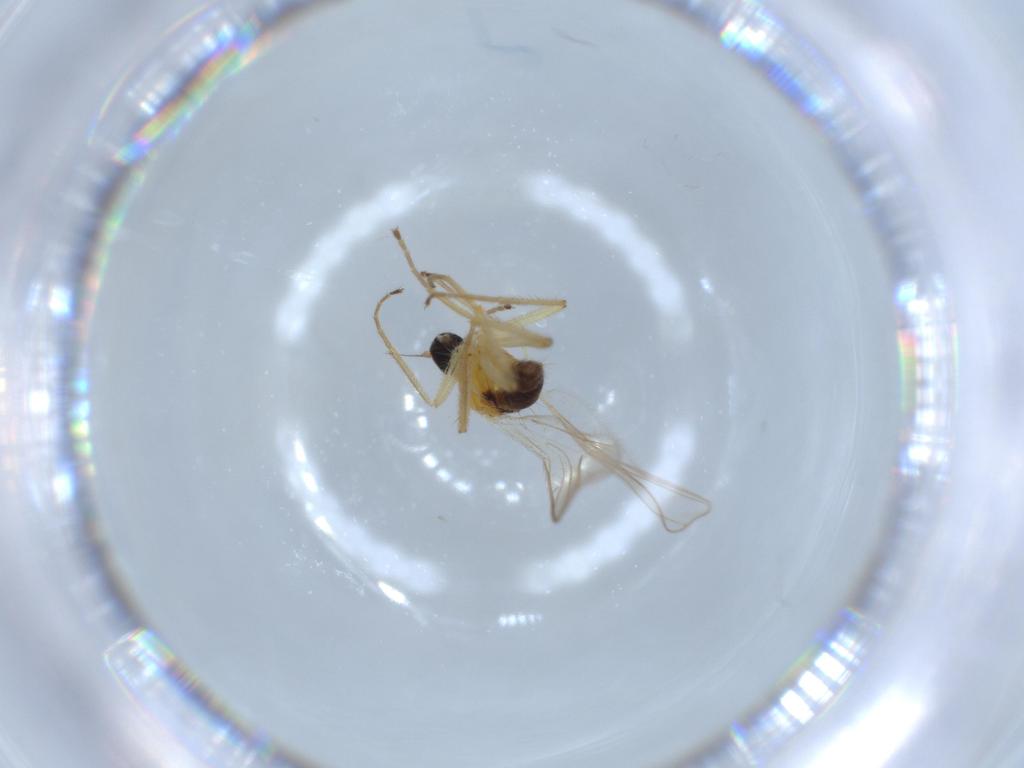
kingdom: Animalia
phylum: Arthropoda
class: Insecta
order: Diptera
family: Hybotidae
